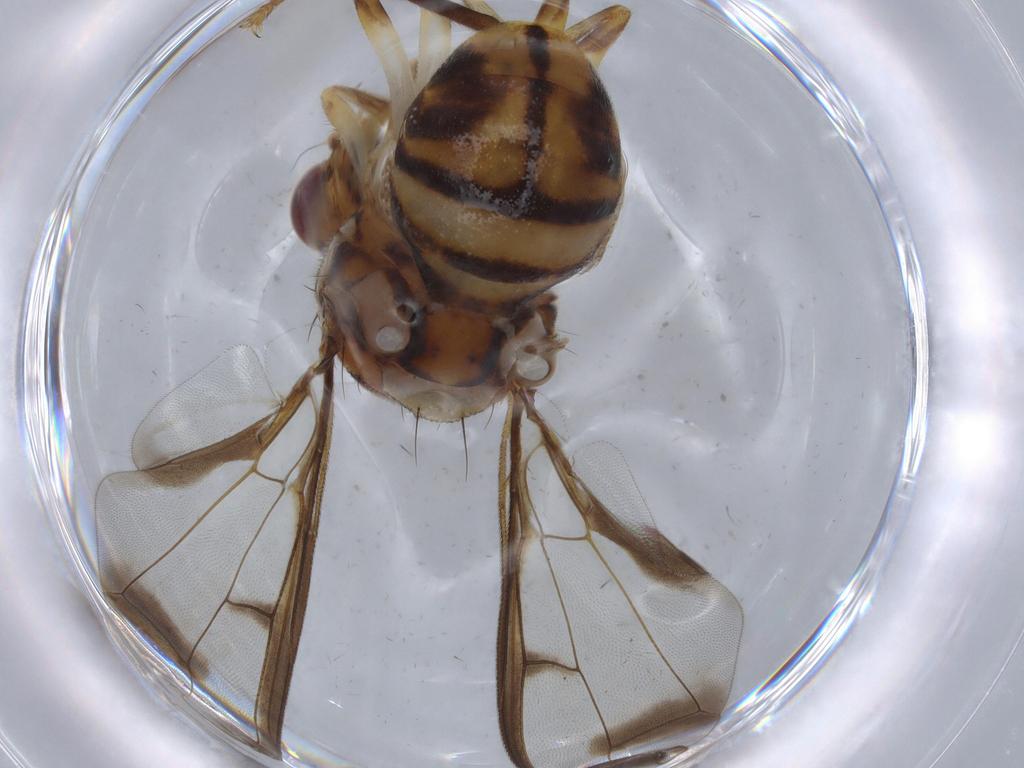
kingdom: Animalia
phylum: Arthropoda
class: Insecta
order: Diptera
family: Ceratopogonidae
